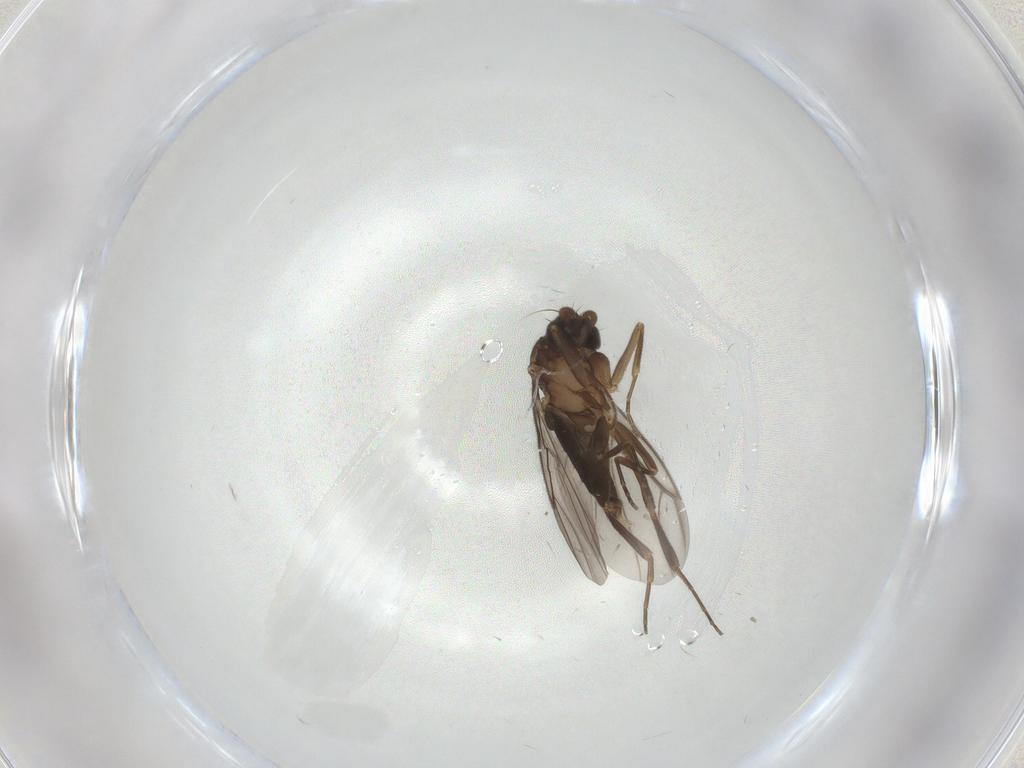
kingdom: Animalia
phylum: Arthropoda
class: Insecta
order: Diptera
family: Phoridae
